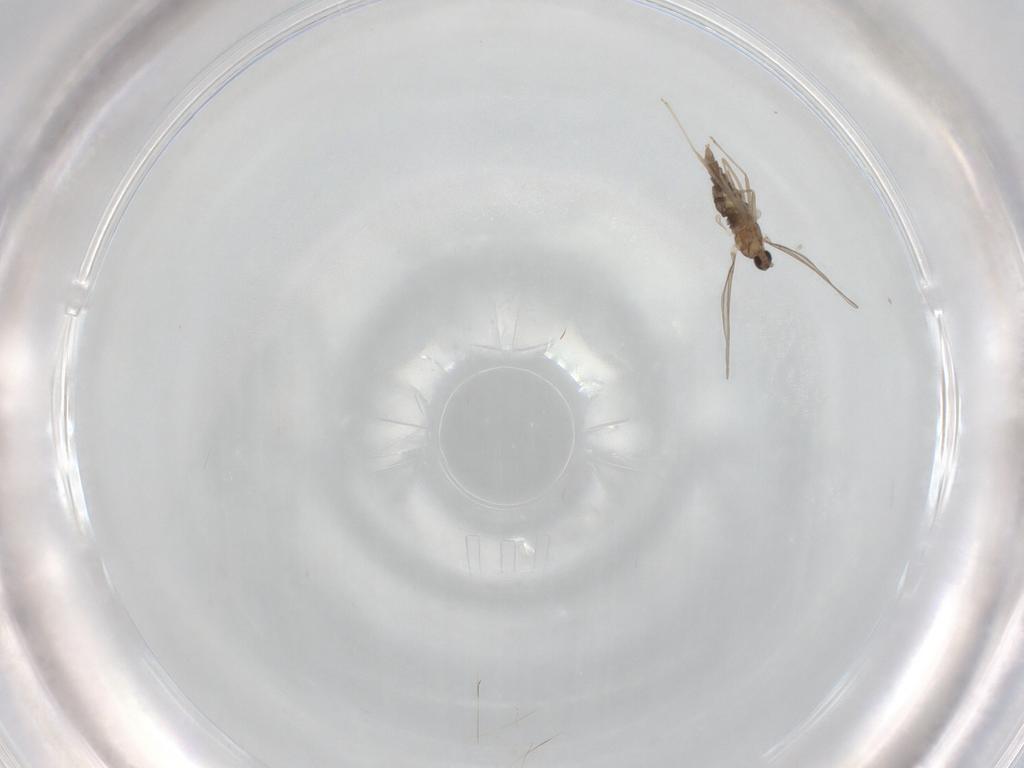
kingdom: Animalia
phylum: Arthropoda
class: Insecta
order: Diptera
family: Cecidomyiidae
